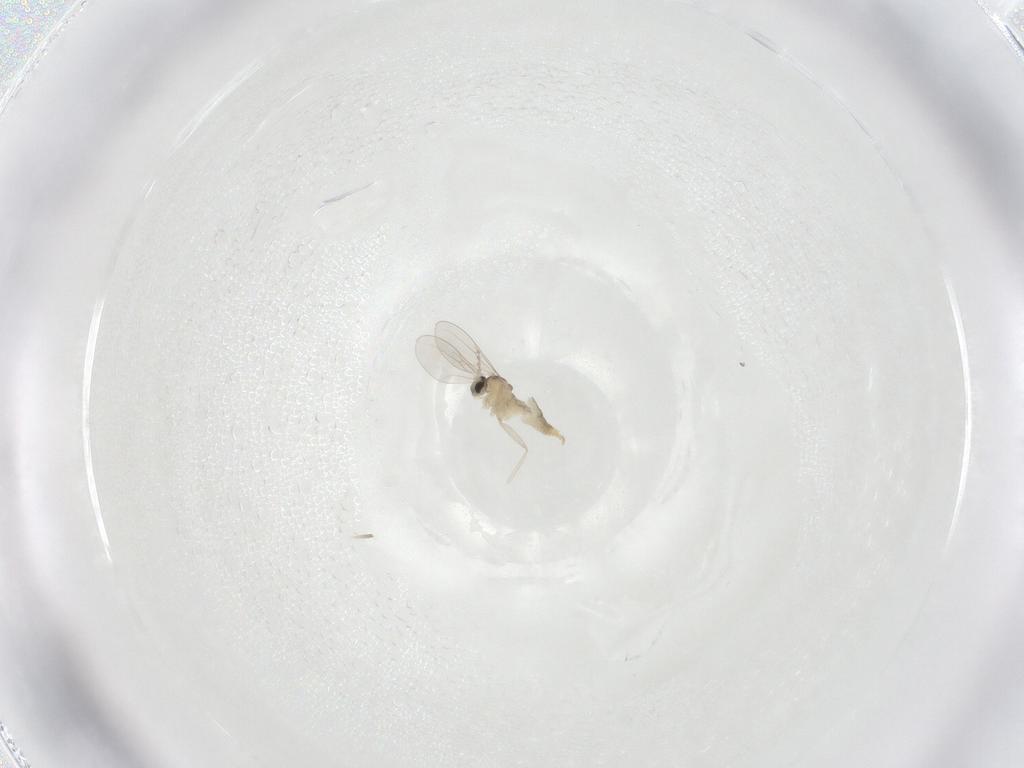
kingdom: Animalia
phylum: Arthropoda
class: Insecta
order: Diptera
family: Cecidomyiidae
